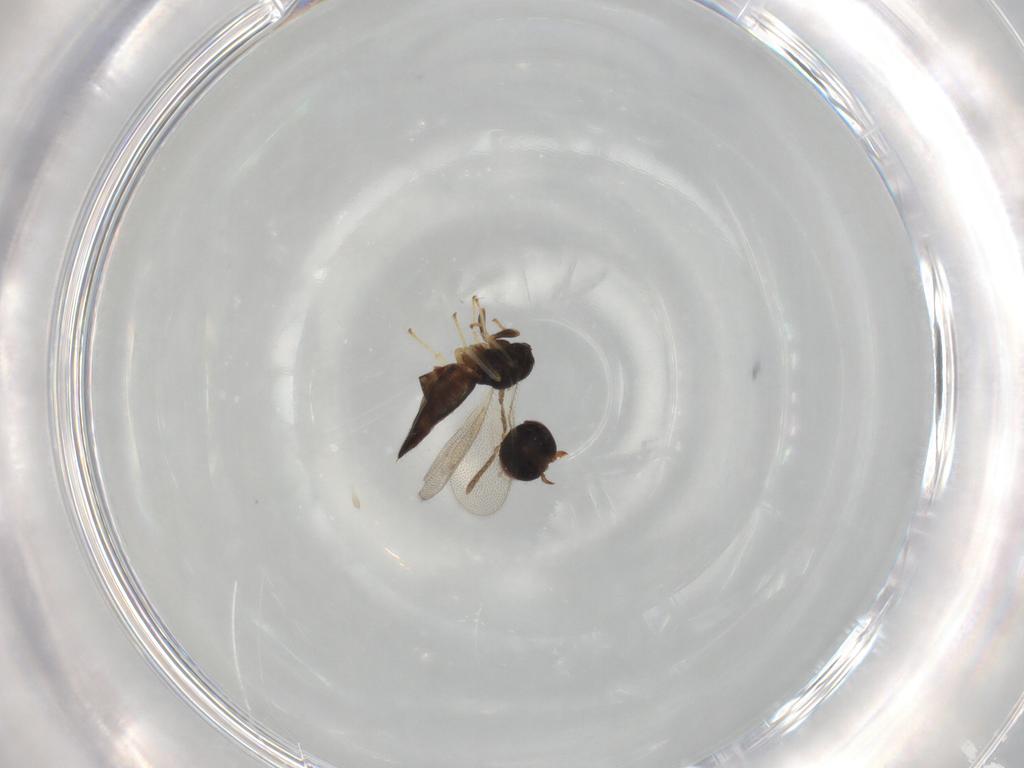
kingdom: Animalia
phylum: Arthropoda
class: Insecta
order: Hymenoptera
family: Pteromalidae
